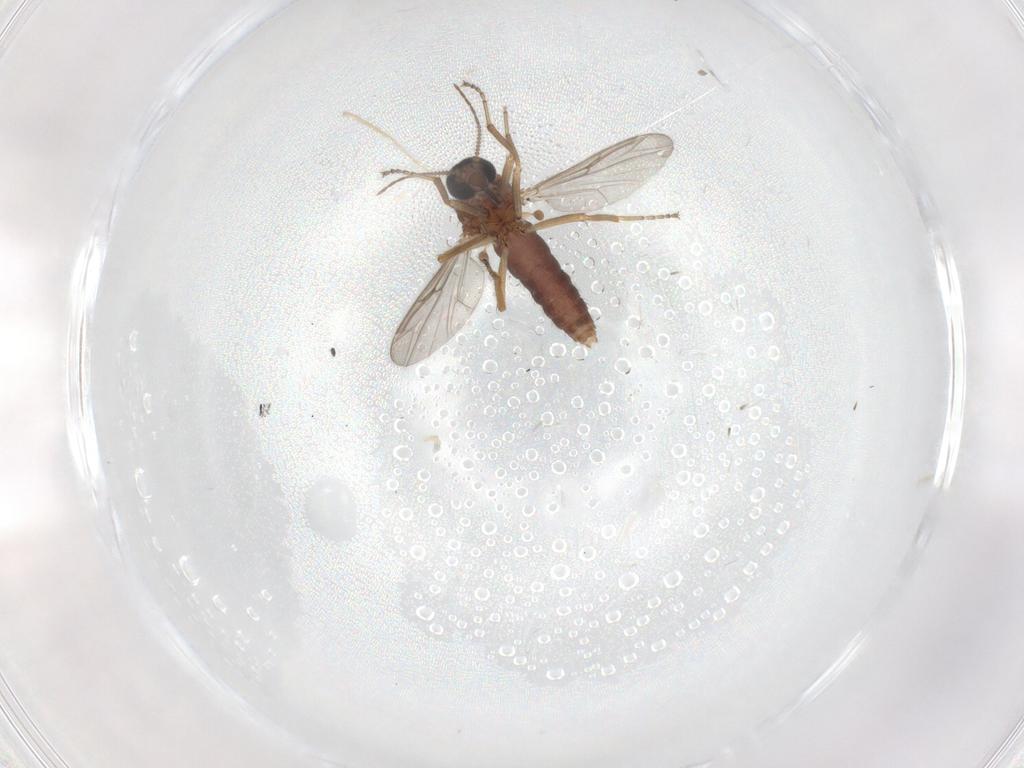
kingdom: Animalia
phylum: Arthropoda
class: Insecta
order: Diptera
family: Ceratopogonidae
